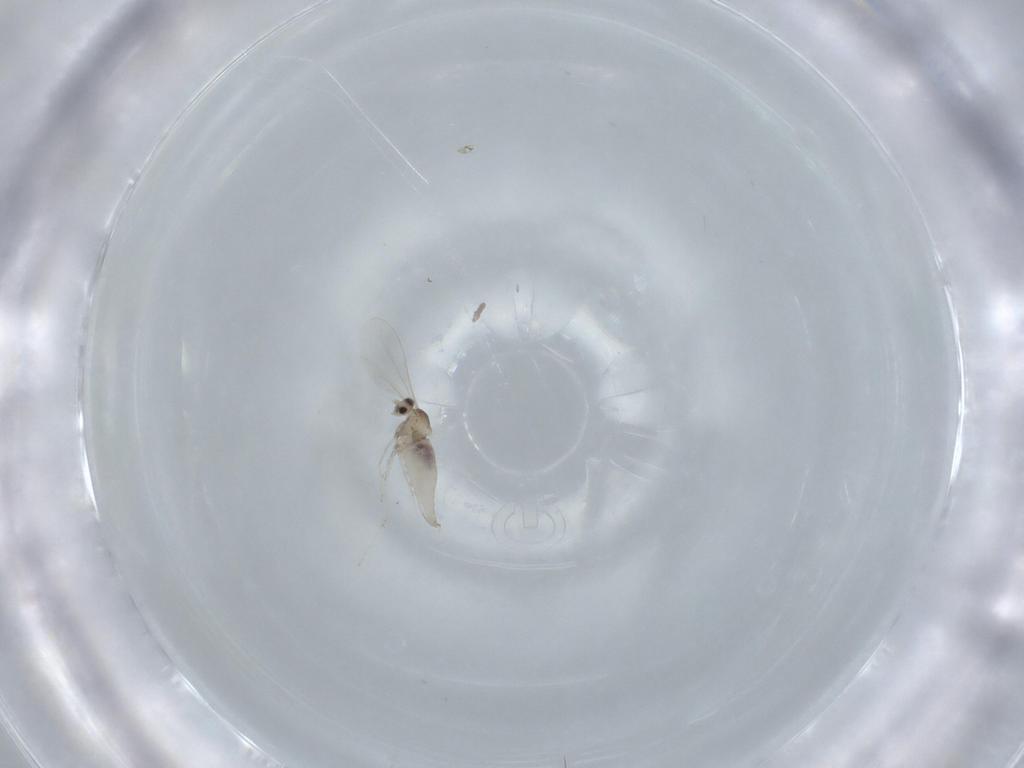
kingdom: Animalia
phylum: Arthropoda
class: Insecta
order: Diptera
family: Cecidomyiidae
